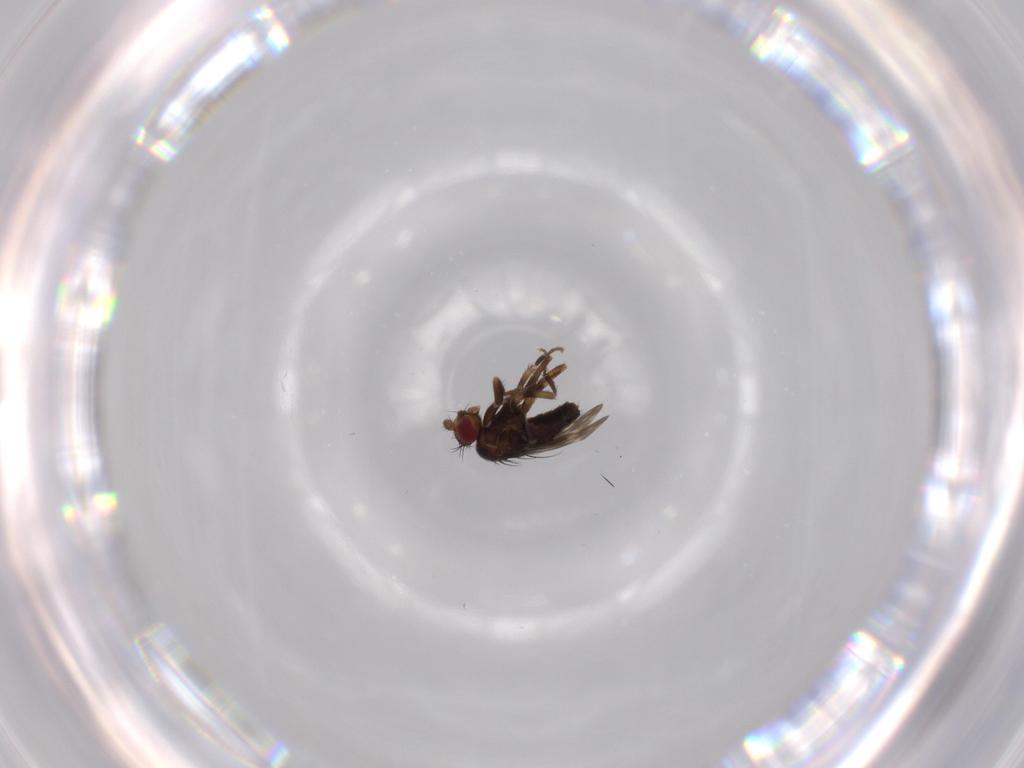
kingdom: Animalia
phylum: Arthropoda
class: Insecta
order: Diptera
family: Sphaeroceridae
